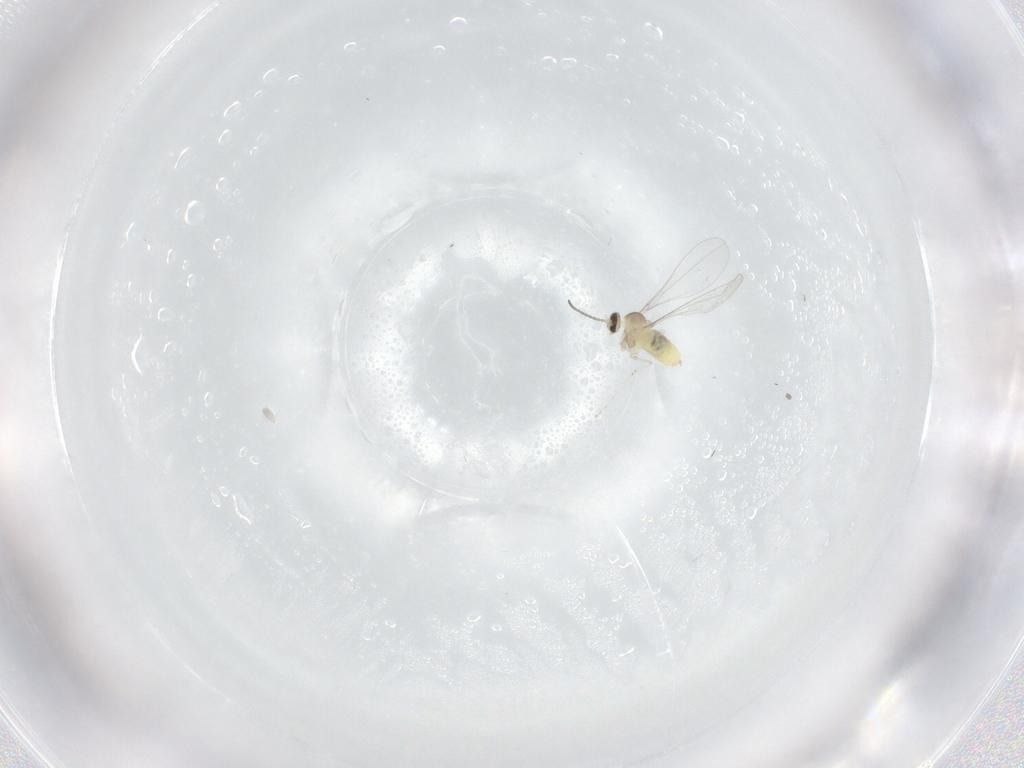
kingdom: Animalia
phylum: Arthropoda
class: Insecta
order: Diptera
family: Cecidomyiidae
